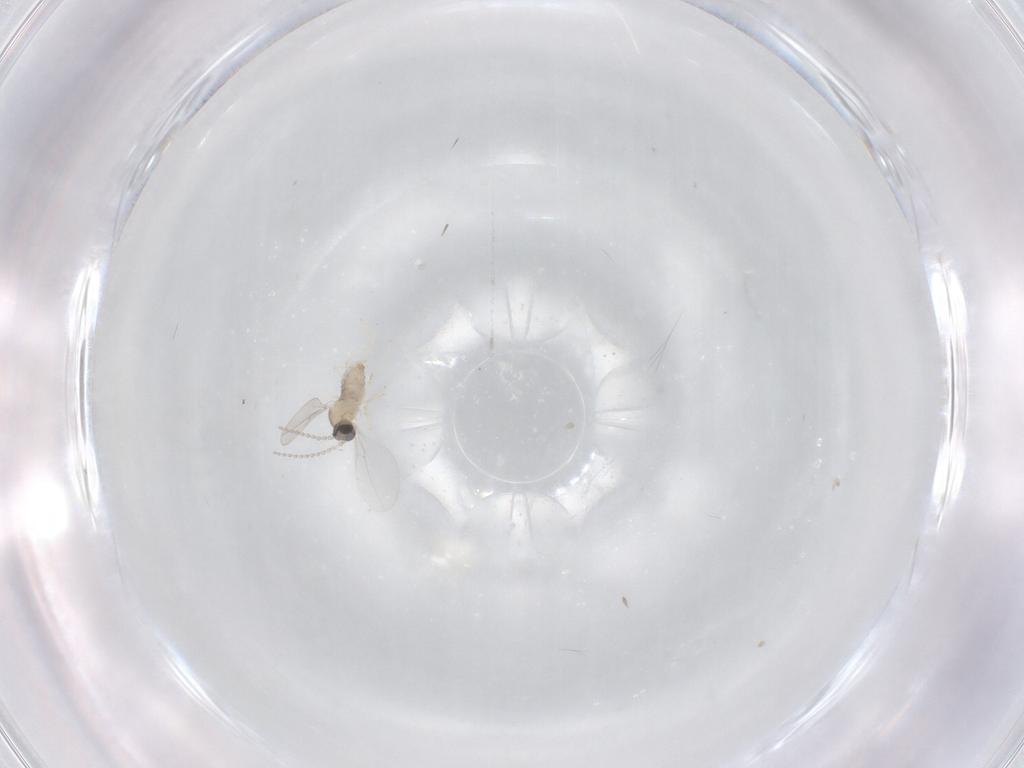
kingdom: Animalia
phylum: Arthropoda
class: Insecta
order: Diptera
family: Cecidomyiidae
